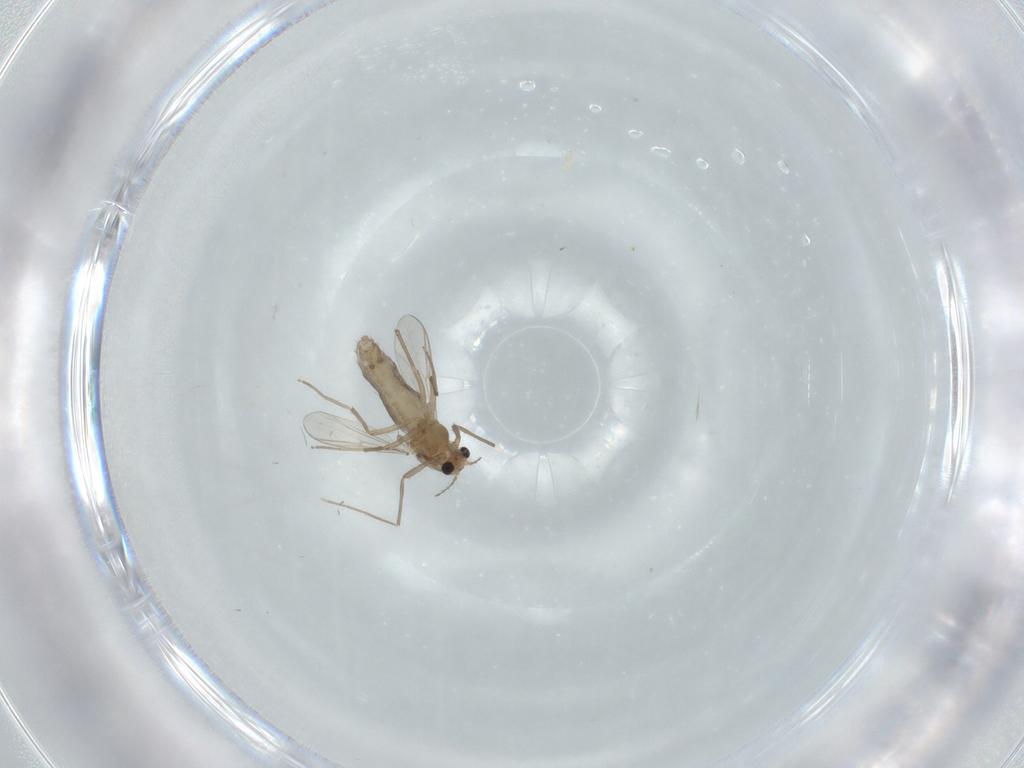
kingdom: Animalia
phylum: Arthropoda
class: Insecta
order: Diptera
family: Chironomidae
